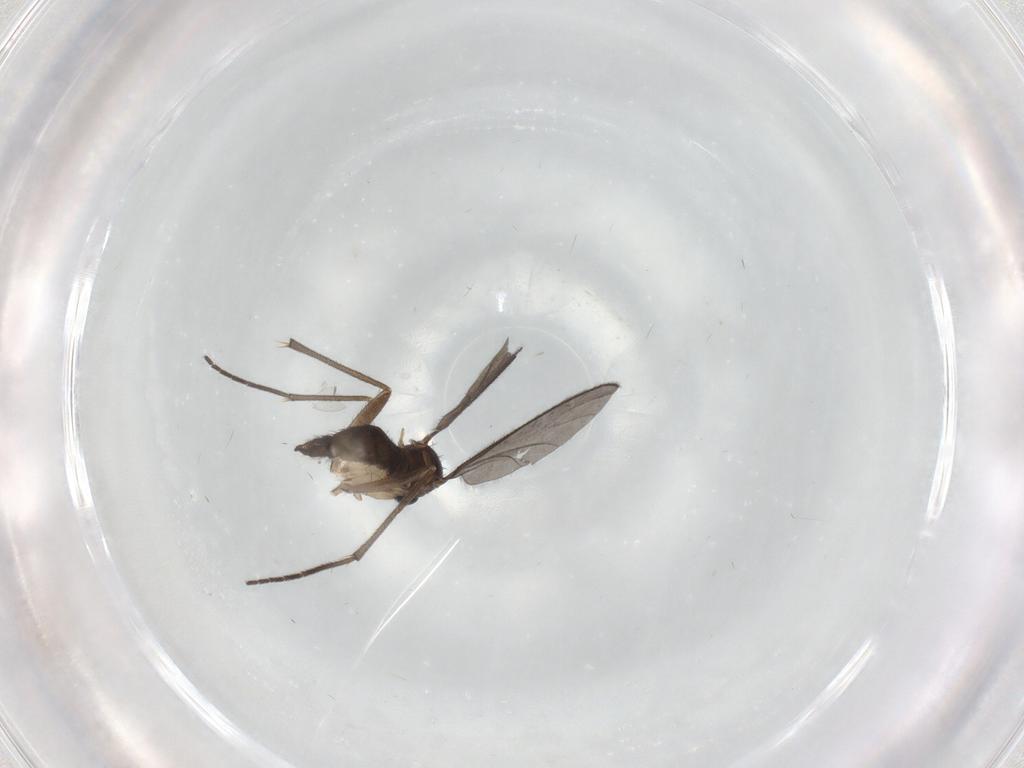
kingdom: Animalia
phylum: Arthropoda
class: Insecta
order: Diptera
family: Sciaridae
